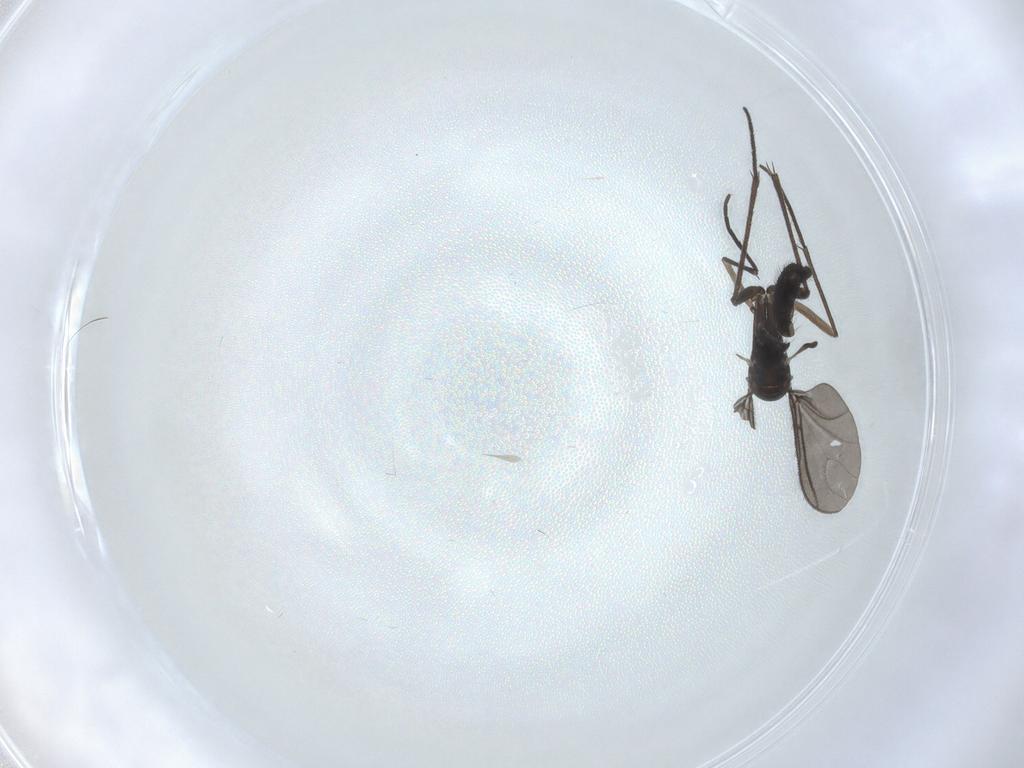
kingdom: Animalia
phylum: Arthropoda
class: Insecta
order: Diptera
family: Sciaridae
